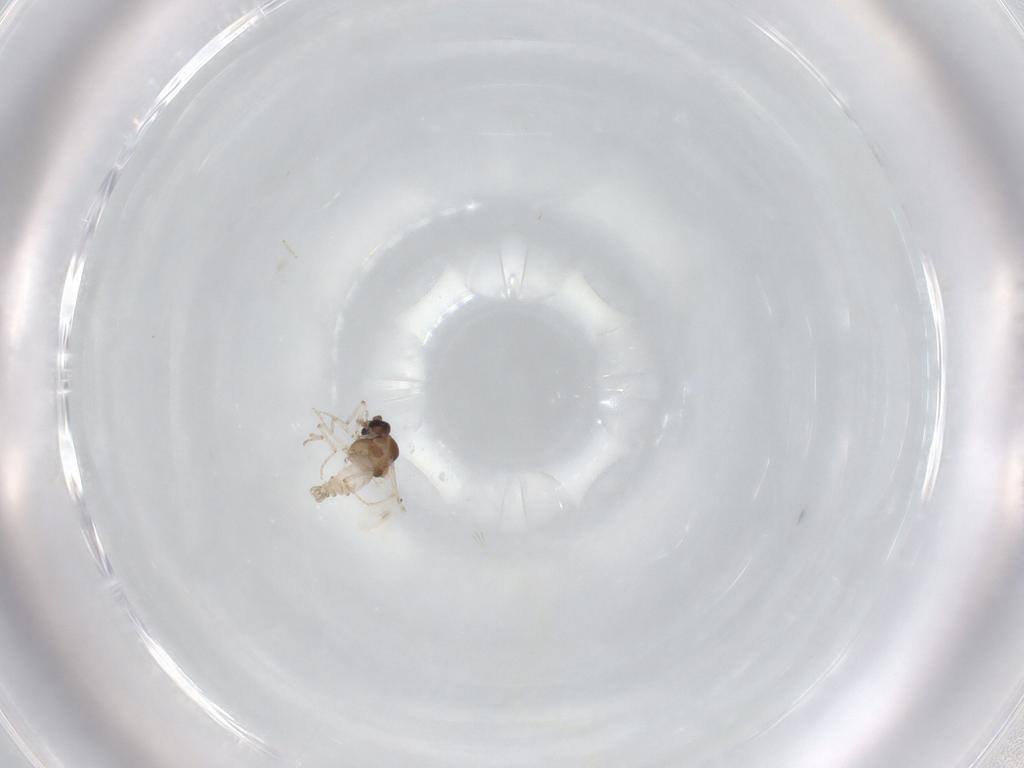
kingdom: Animalia
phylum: Arthropoda
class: Insecta
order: Diptera
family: Ceratopogonidae
